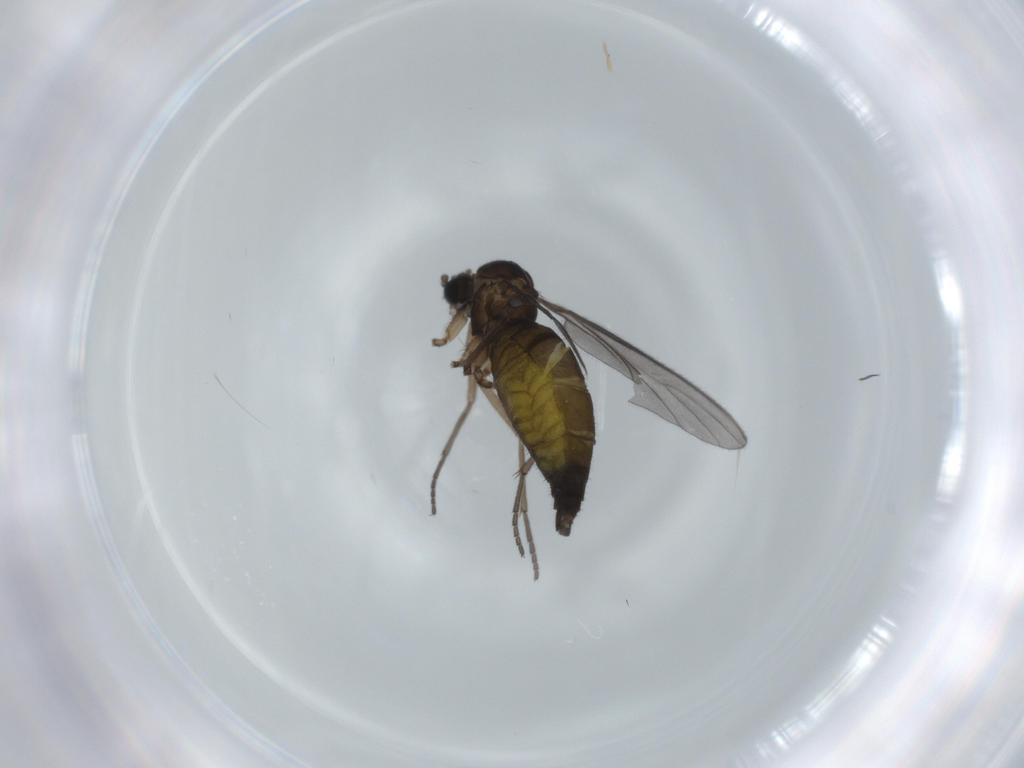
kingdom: Animalia
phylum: Arthropoda
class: Insecta
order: Diptera
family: Sciaridae
